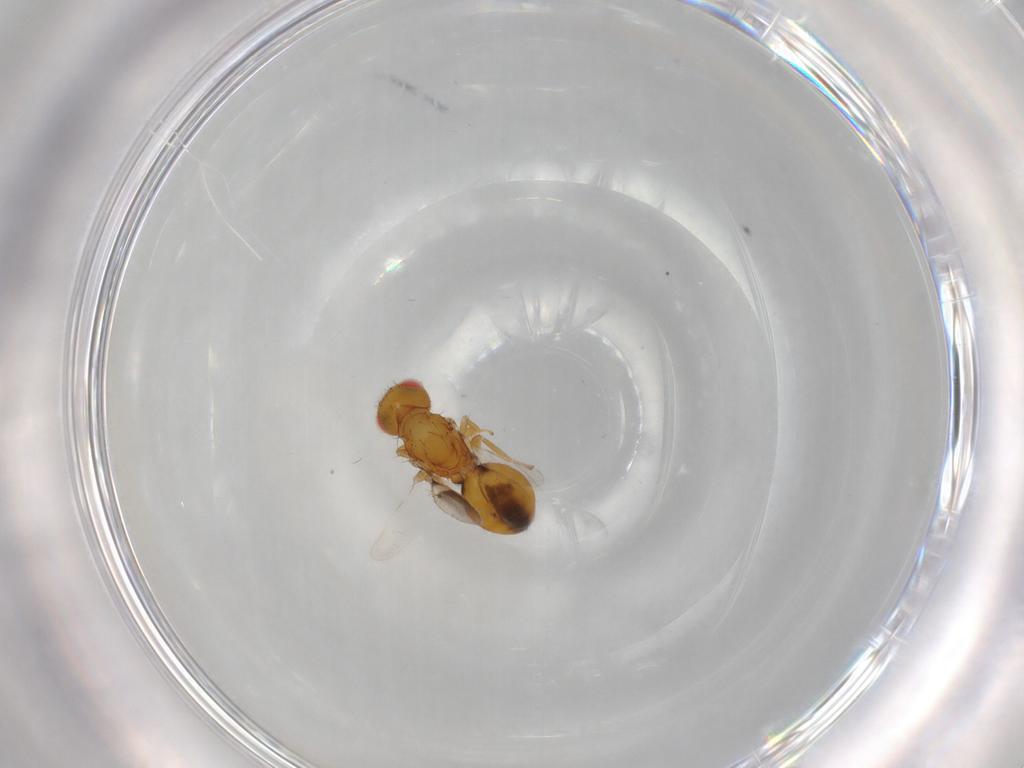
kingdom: Animalia
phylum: Arthropoda
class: Insecta
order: Hymenoptera
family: Eulophidae
